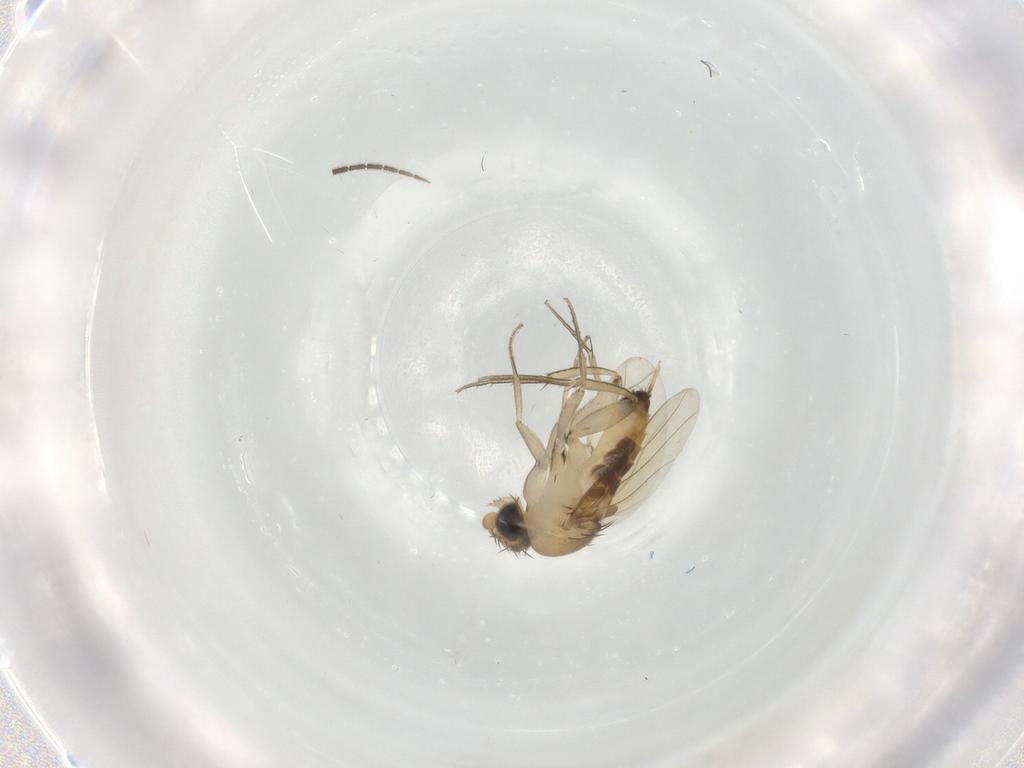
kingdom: Animalia
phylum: Arthropoda
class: Insecta
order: Diptera
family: Sciaridae
